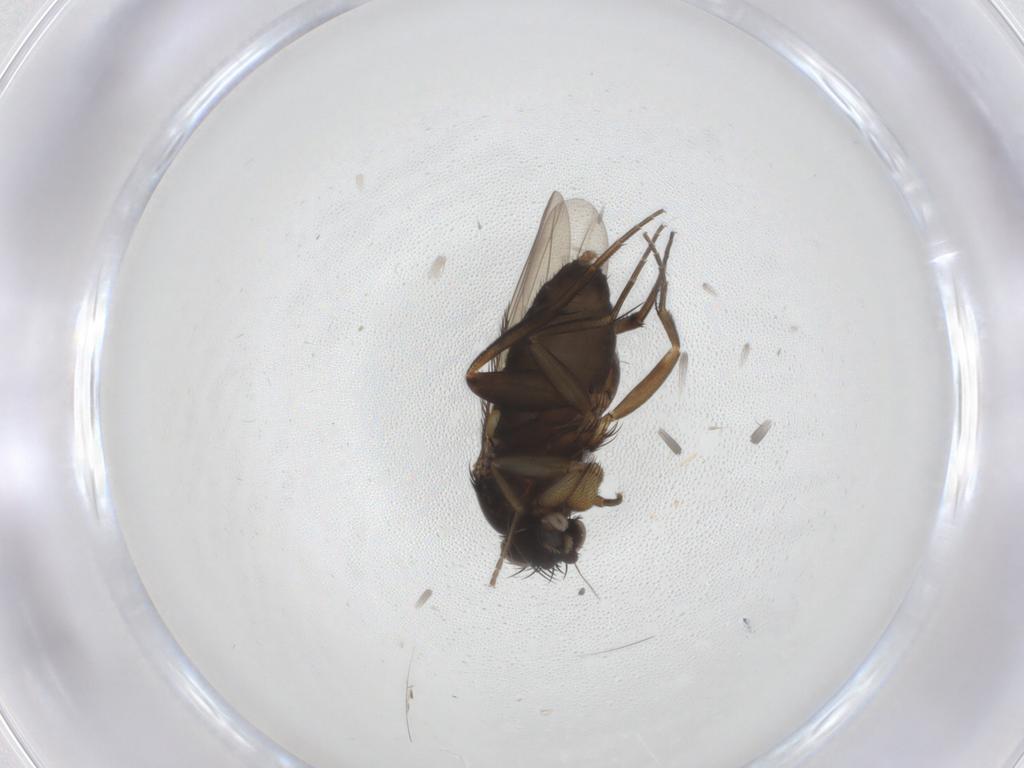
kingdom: Animalia
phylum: Arthropoda
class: Insecta
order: Diptera
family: Phoridae
